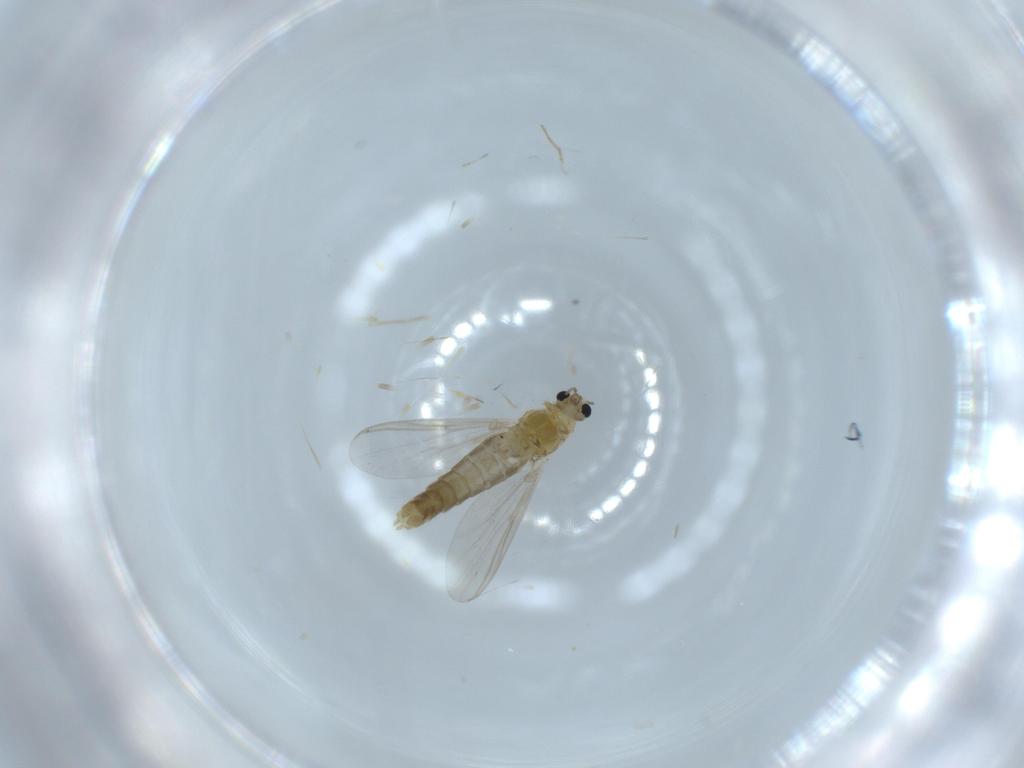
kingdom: Animalia
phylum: Arthropoda
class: Insecta
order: Diptera
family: Chironomidae
